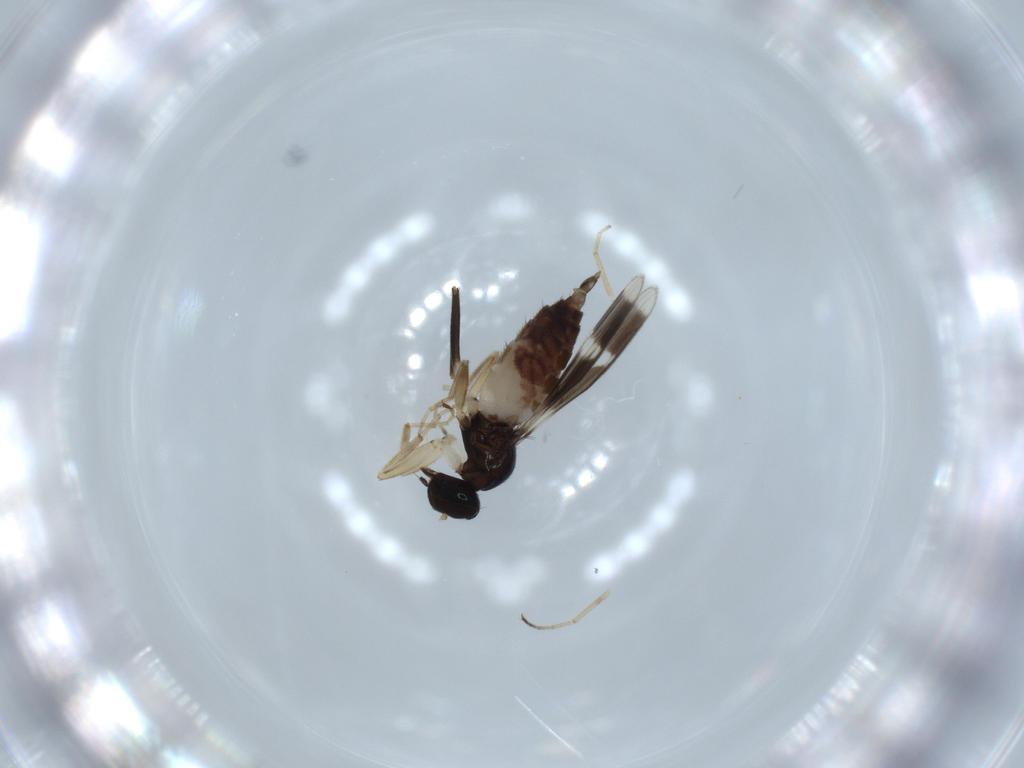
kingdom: Animalia
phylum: Arthropoda
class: Insecta
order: Diptera
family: Hybotidae
